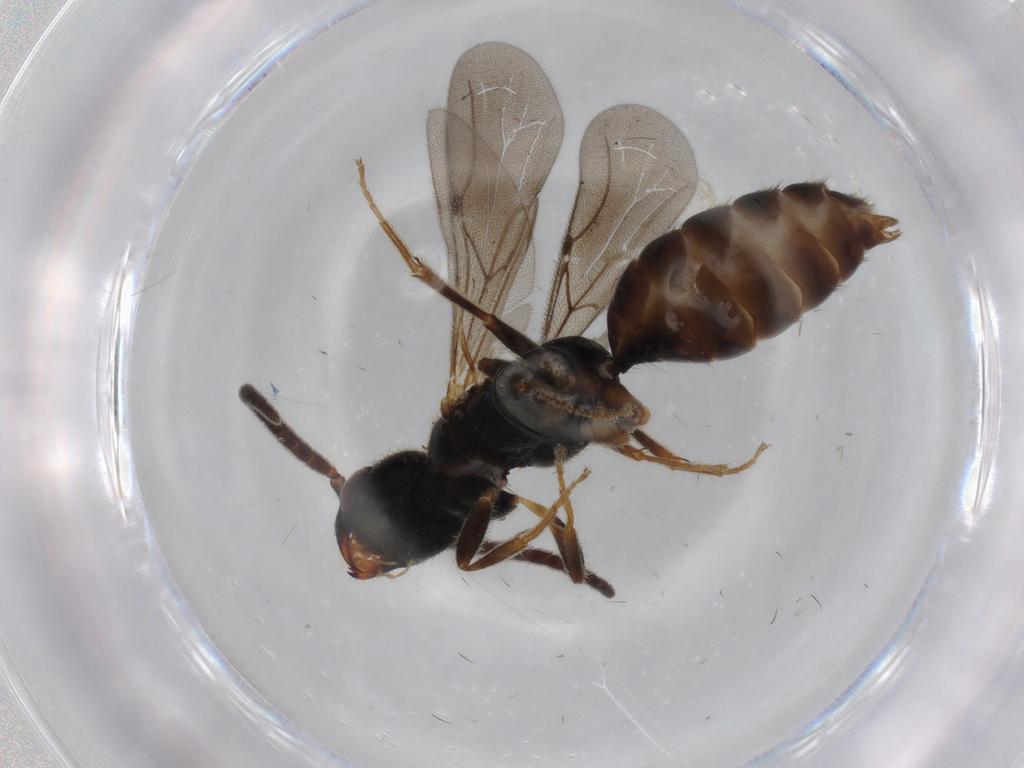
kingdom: Animalia
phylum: Arthropoda
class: Insecta
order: Hymenoptera
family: Bethylidae
